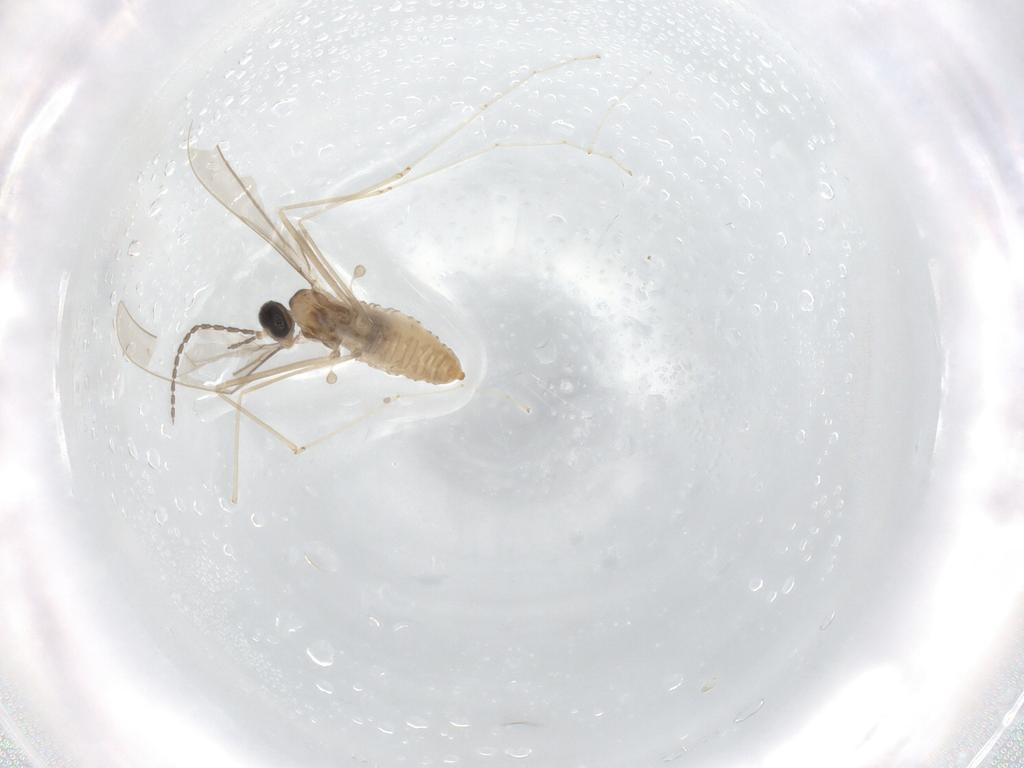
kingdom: Animalia
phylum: Arthropoda
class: Insecta
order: Diptera
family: Cecidomyiidae
